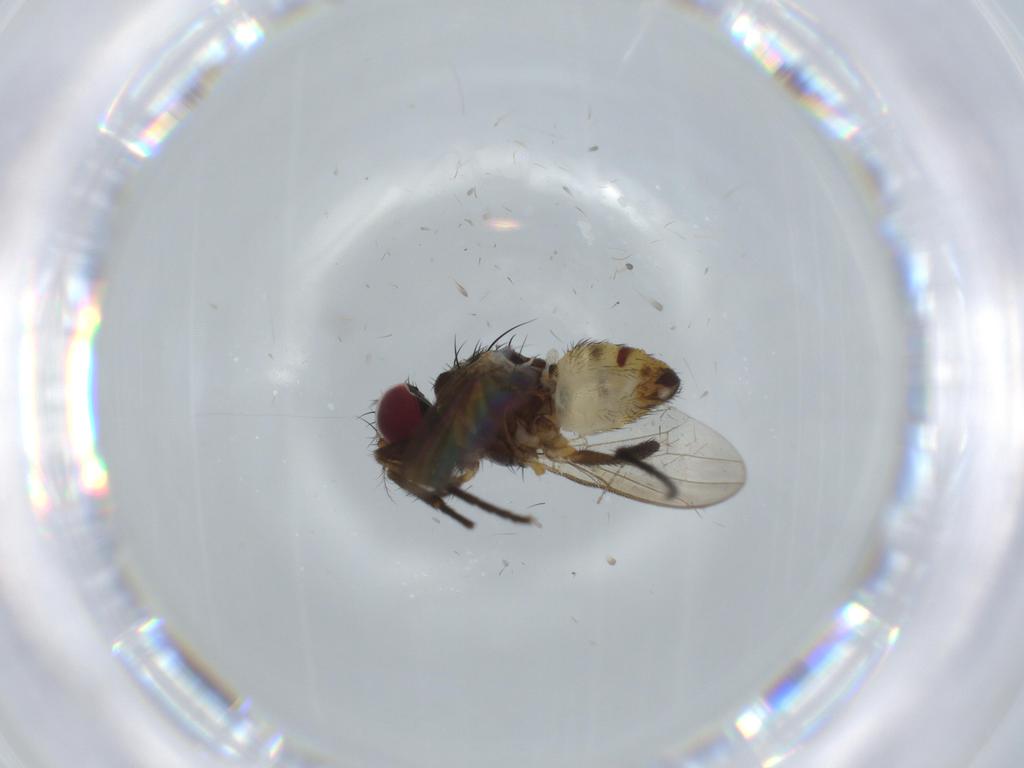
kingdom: Animalia
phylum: Arthropoda
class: Insecta
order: Diptera
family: Anthomyiidae
